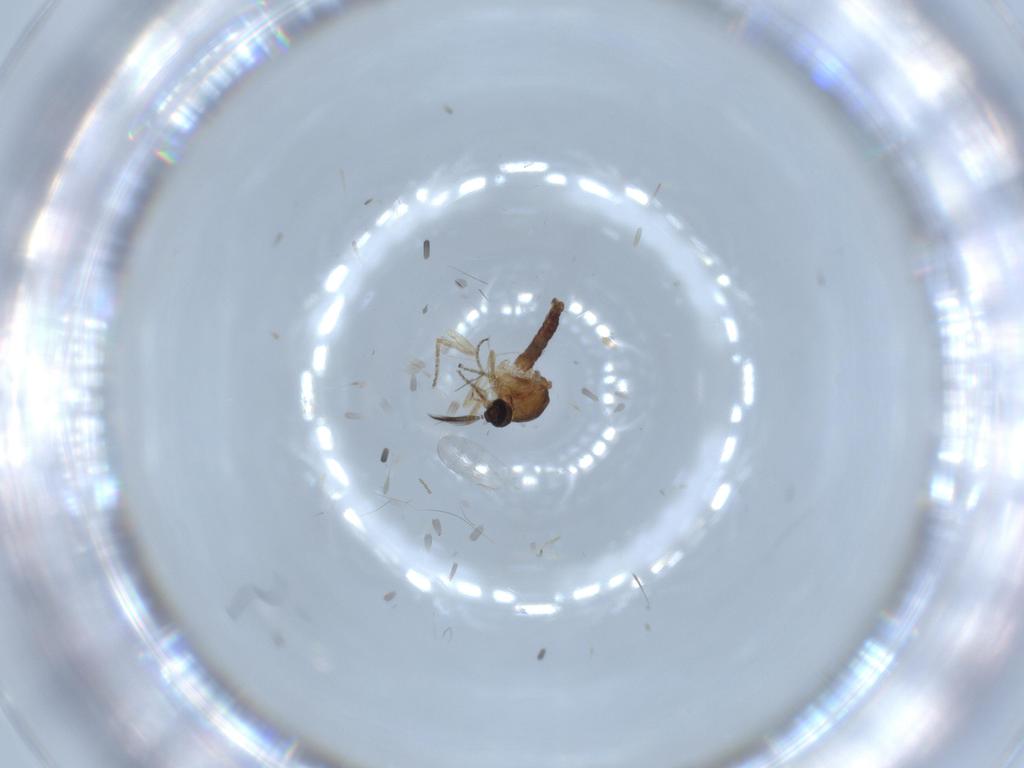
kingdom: Animalia
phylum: Arthropoda
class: Insecta
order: Diptera
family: Ceratopogonidae
